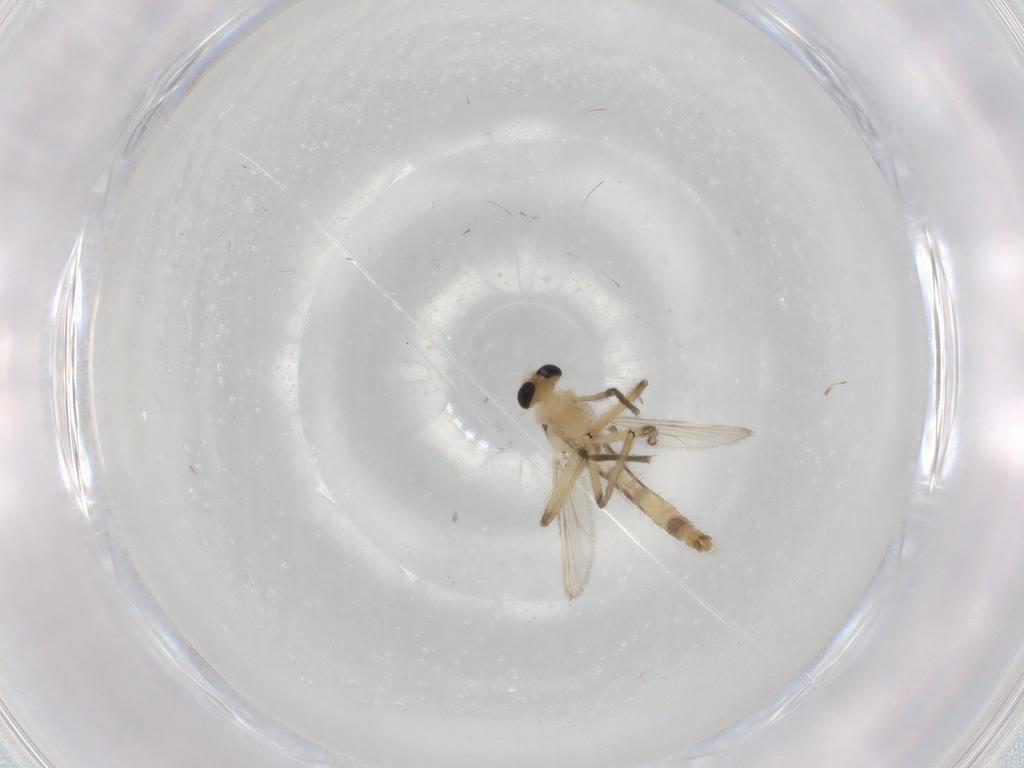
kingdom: Animalia
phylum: Arthropoda
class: Insecta
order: Diptera
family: Chironomidae
